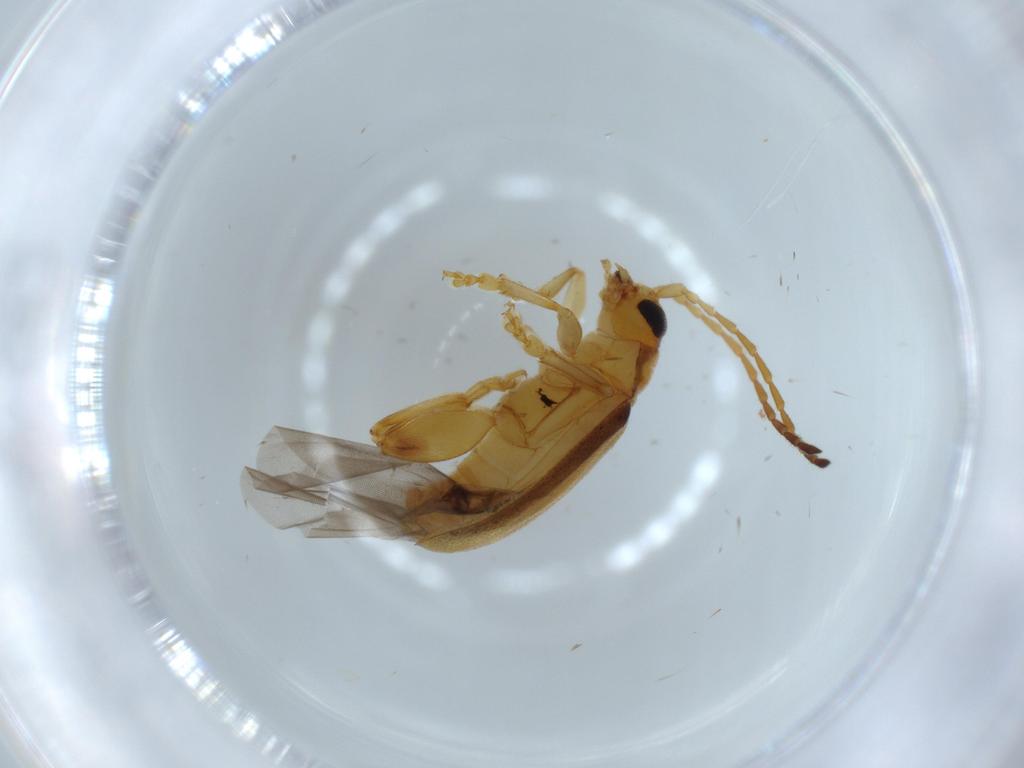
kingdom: Animalia
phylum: Arthropoda
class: Insecta
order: Coleoptera
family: Chrysomelidae
